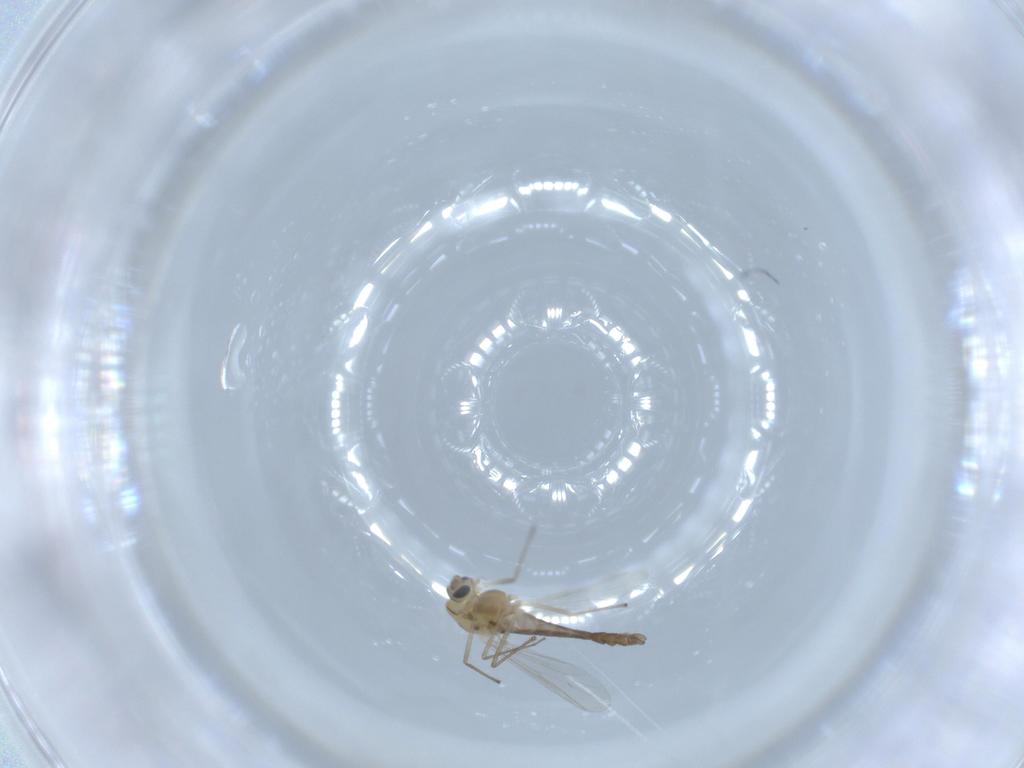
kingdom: Animalia
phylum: Arthropoda
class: Insecta
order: Diptera
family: Chironomidae
